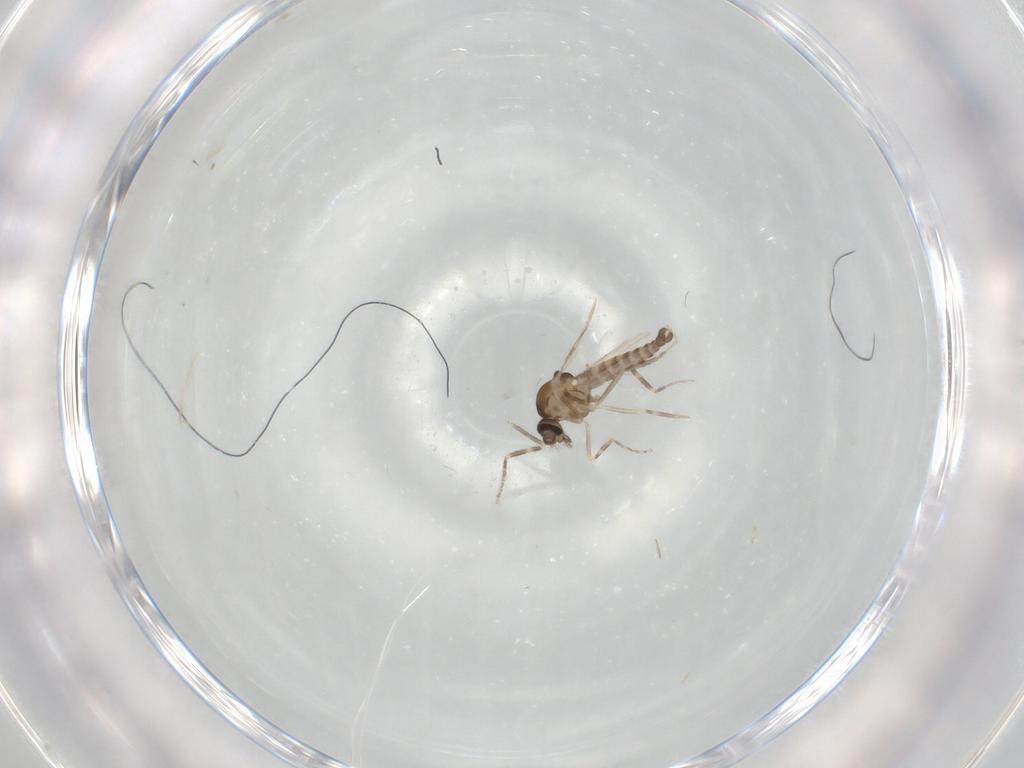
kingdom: Animalia
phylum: Arthropoda
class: Insecta
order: Diptera
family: Ceratopogonidae
